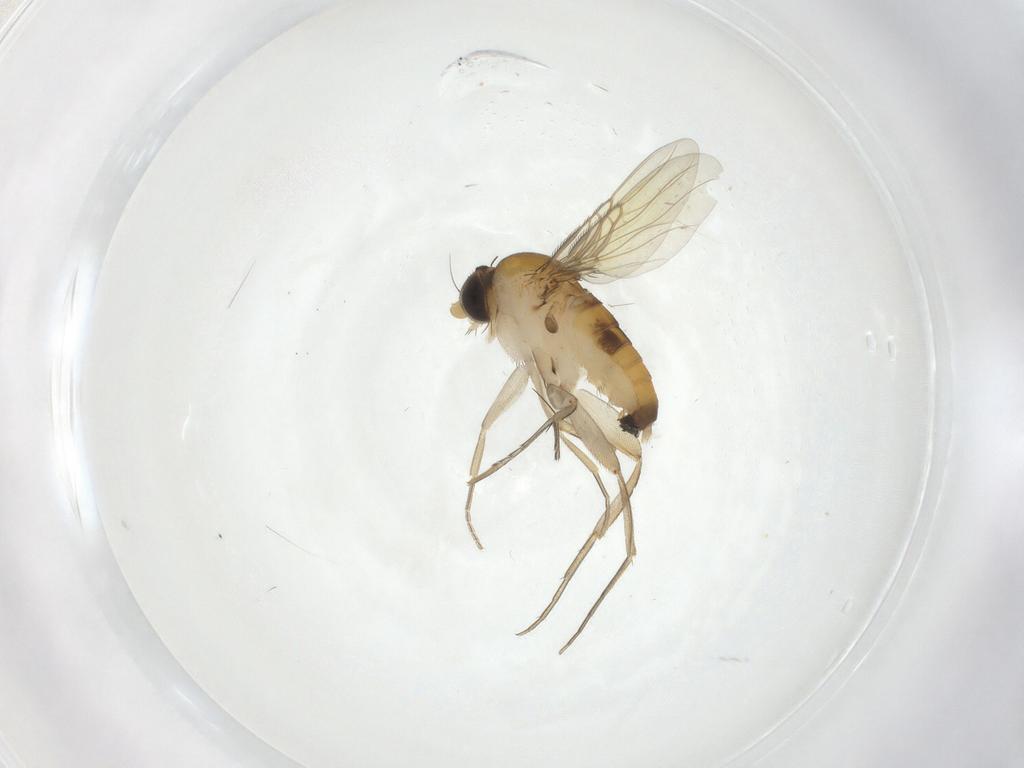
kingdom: Animalia
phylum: Arthropoda
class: Insecta
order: Diptera
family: Phoridae
